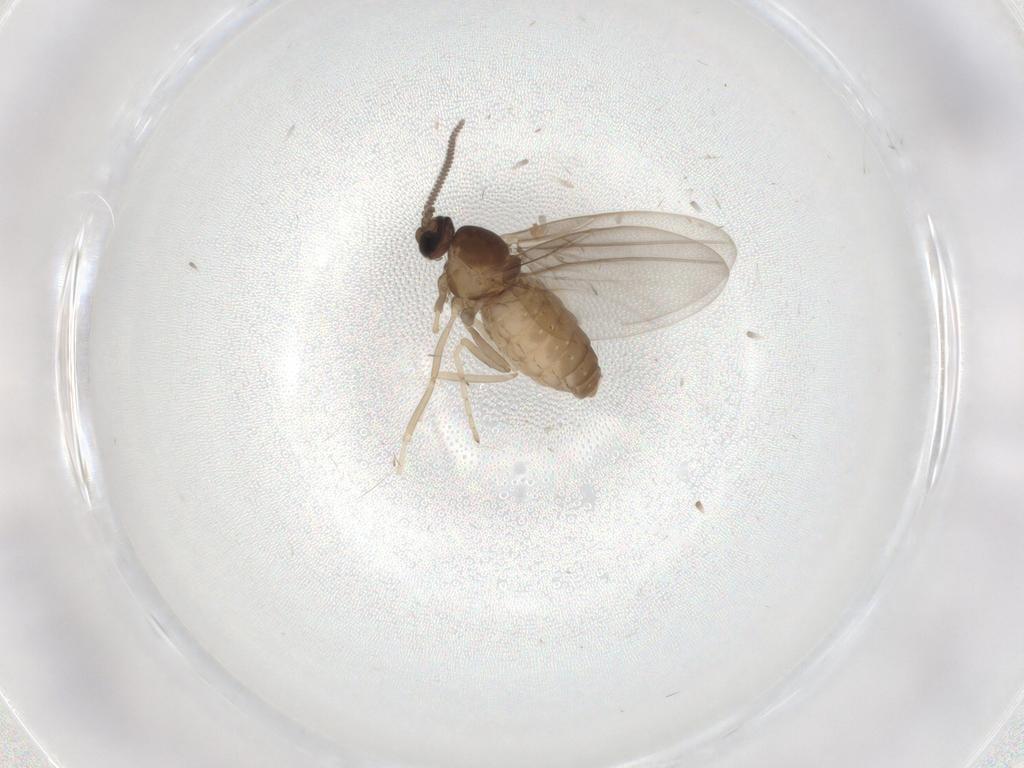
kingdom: Animalia
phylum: Arthropoda
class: Insecta
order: Diptera
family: Cecidomyiidae
